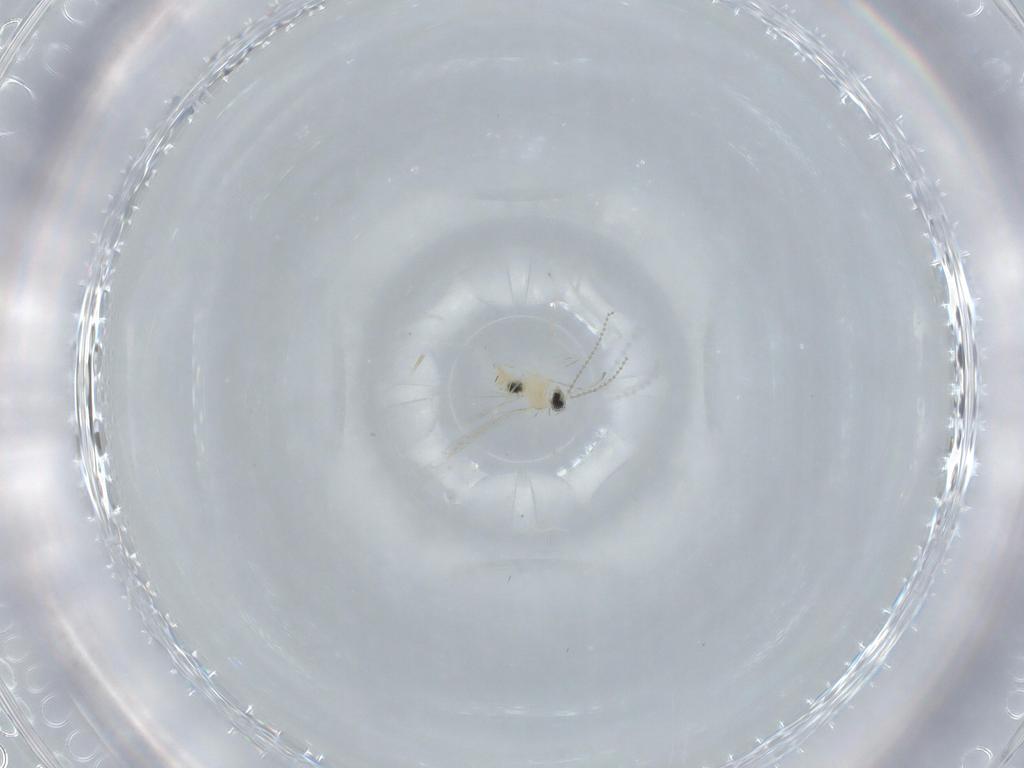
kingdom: Animalia
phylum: Arthropoda
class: Insecta
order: Diptera
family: Cecidomyiidae
